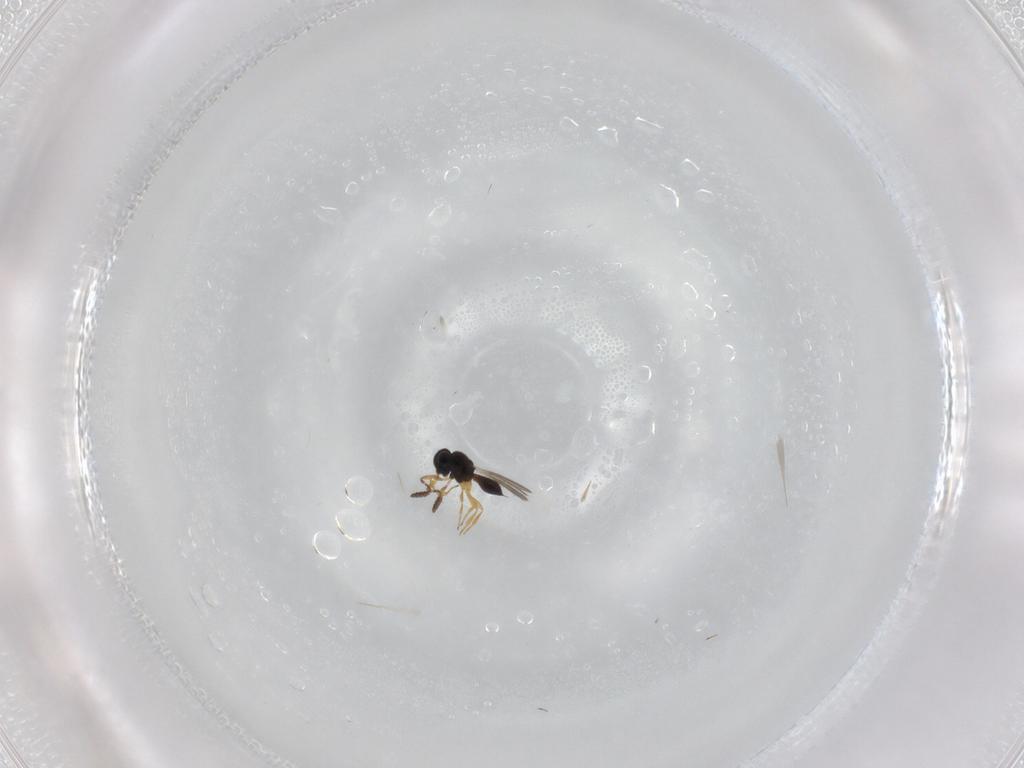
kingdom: Animalia
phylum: Arthropoda
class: Insecta
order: Hymenoptera
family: Scelionidae
